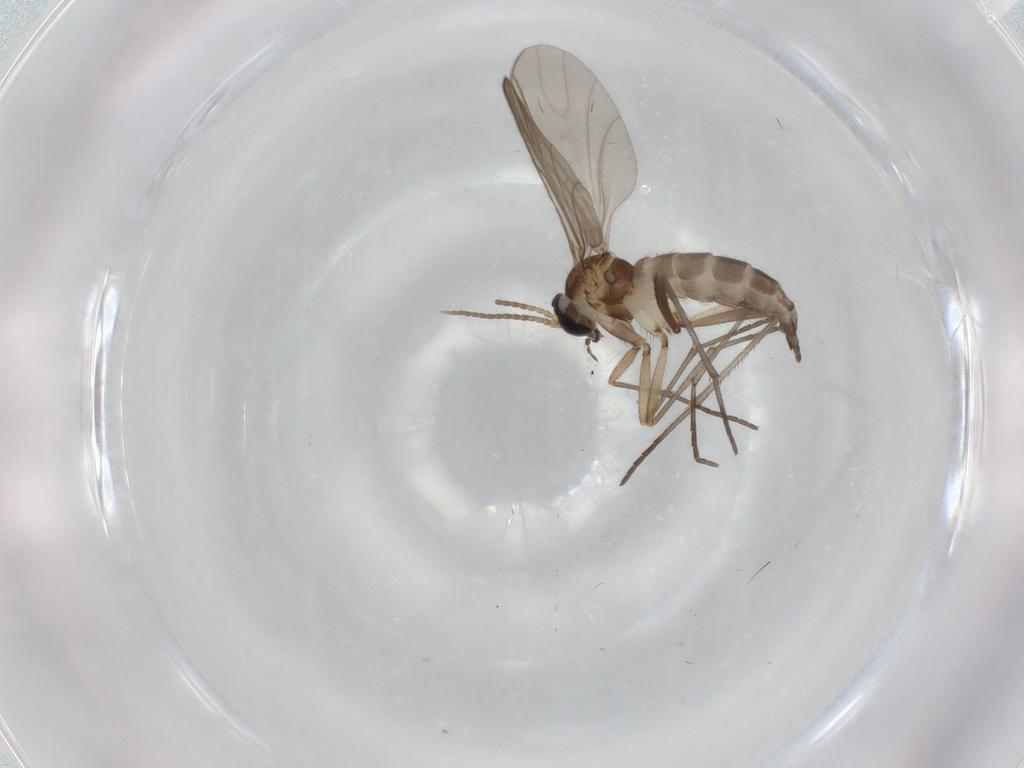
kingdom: Animalia
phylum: Arthropoda
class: Insecta
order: Diptera
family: Sciaridae
